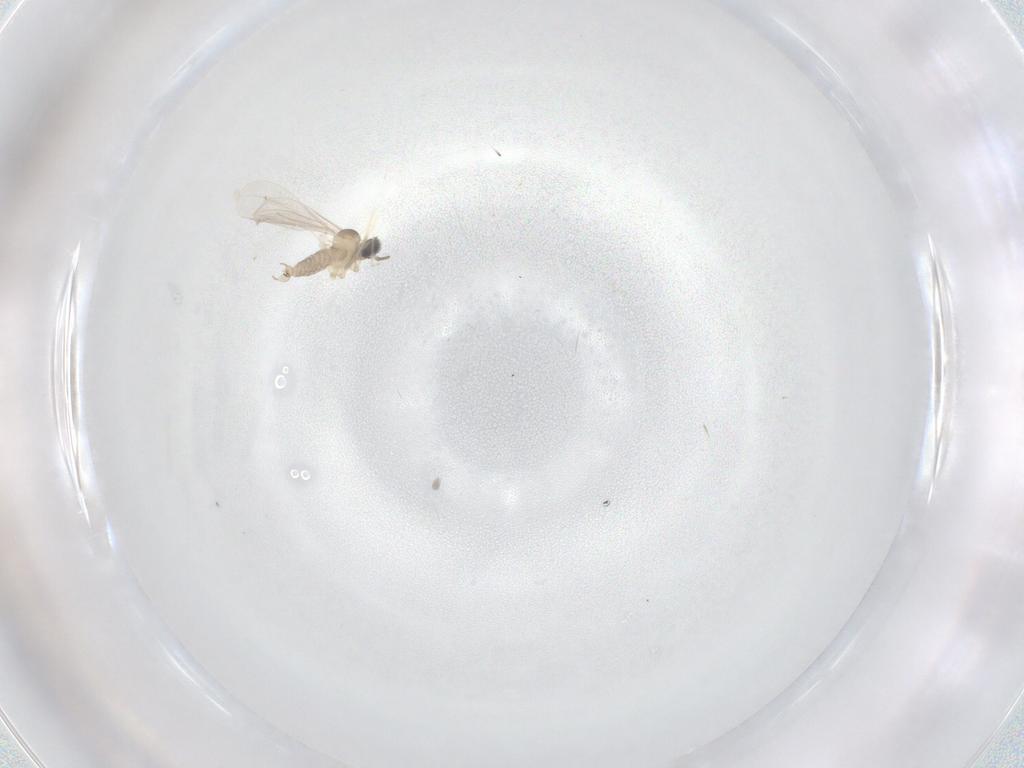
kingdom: Animalia
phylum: Arthropoda
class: Insecta
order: Diptera
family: Cecidomyiidae
